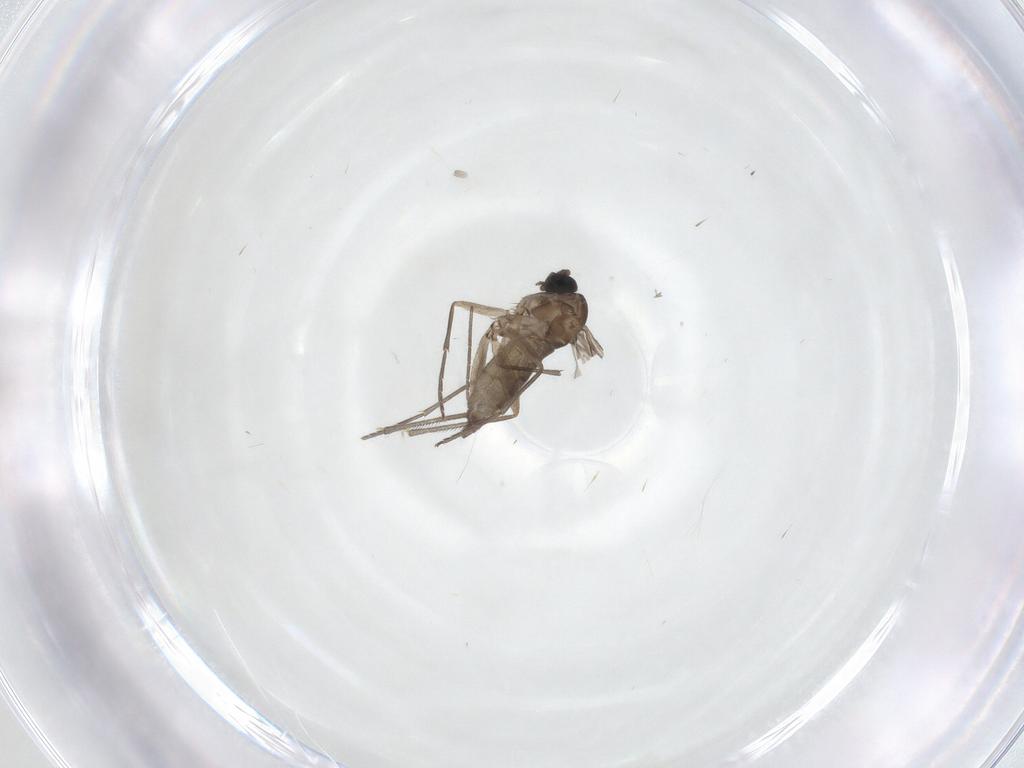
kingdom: Animalia
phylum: Arthropoda
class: Insecta
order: Diptera
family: Sciaridae
